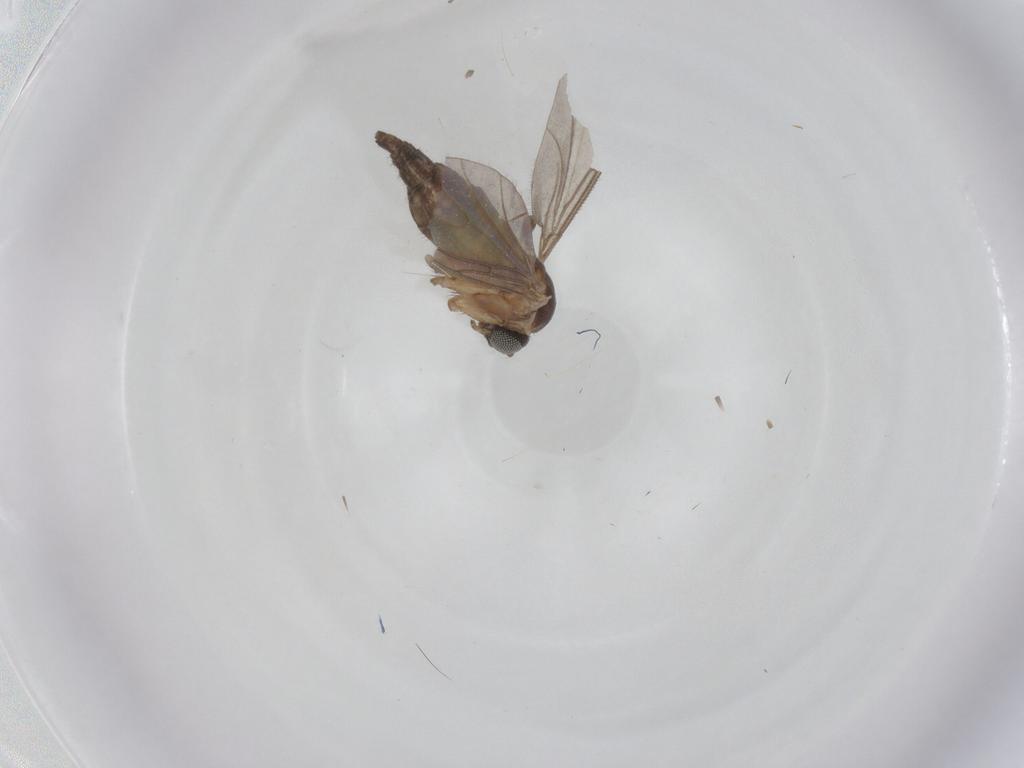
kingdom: Animalia
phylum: Arthropoda
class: Insecta
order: Diptera
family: Sciaridae
